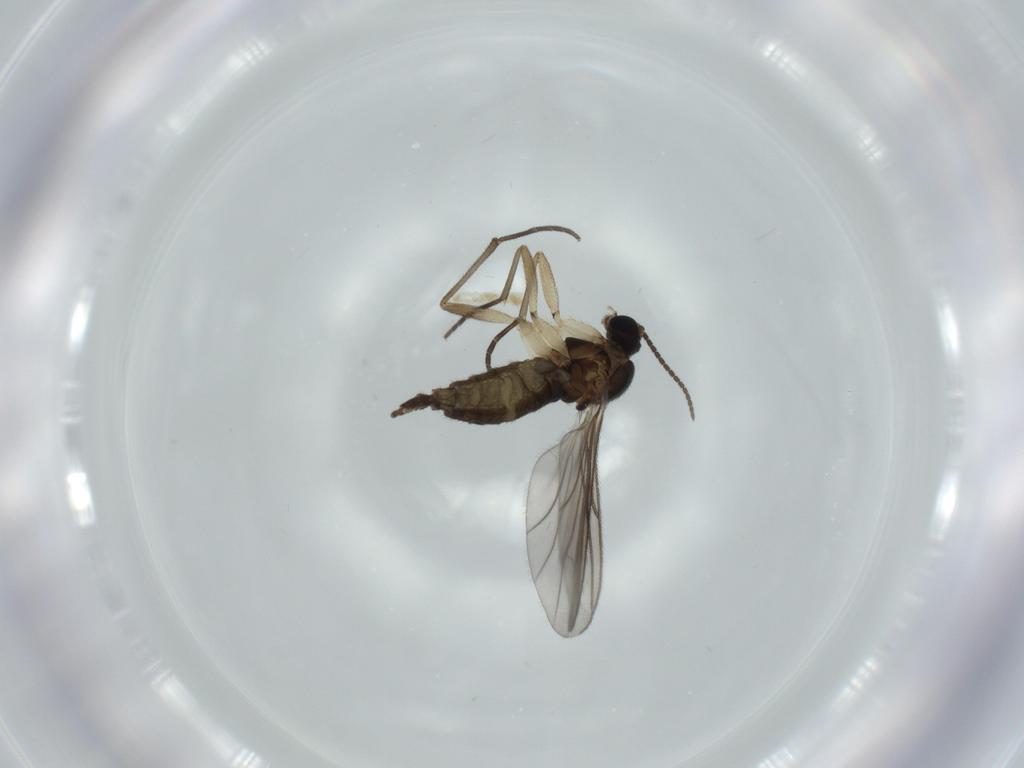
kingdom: Animalia
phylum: Arthropoda
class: Insecta
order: Diptera
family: Sciaridae
